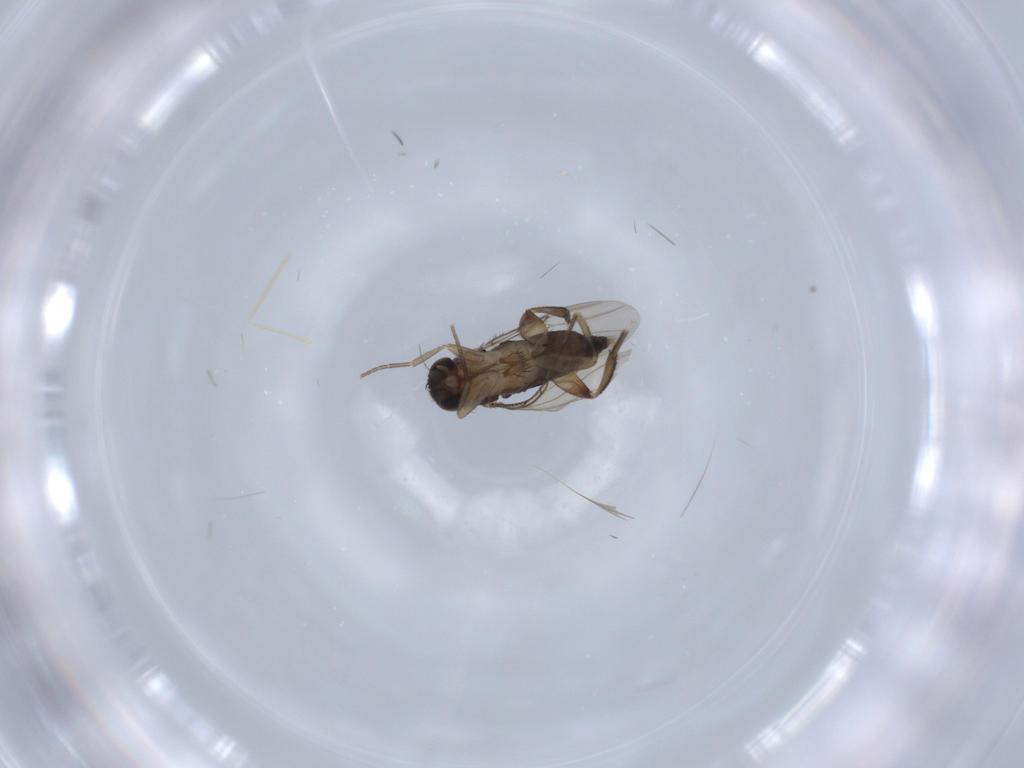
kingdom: Animalia
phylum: Arthropoda
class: Insecta
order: Diptera
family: Phoridae
